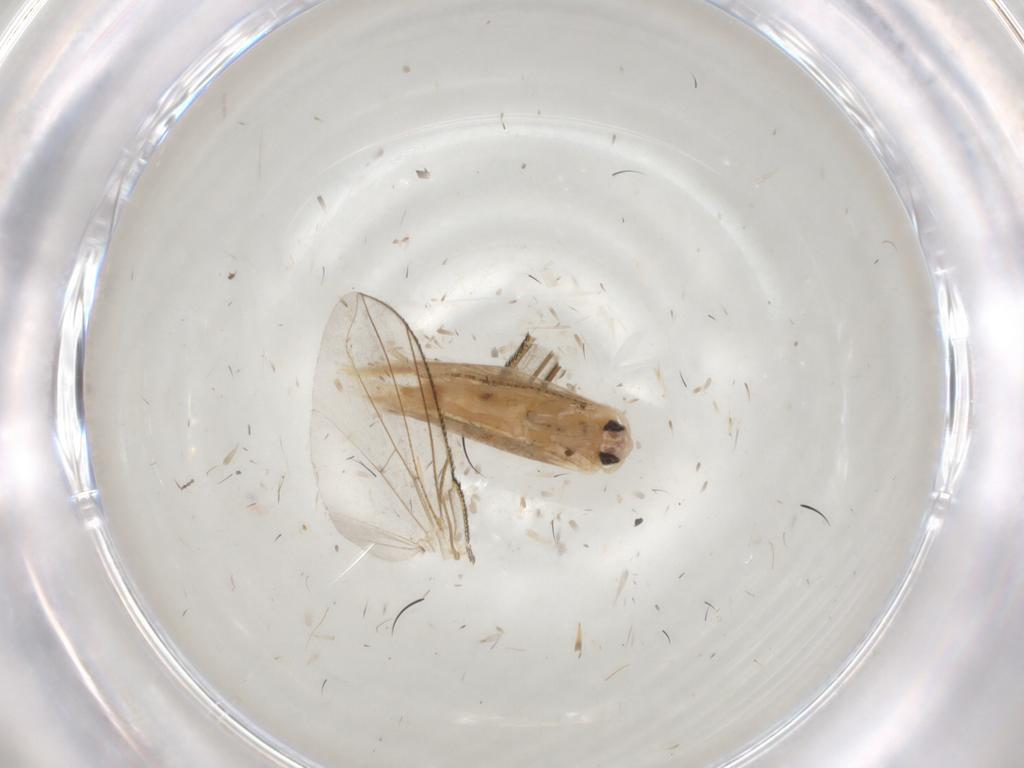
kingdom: Animalia
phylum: Arthropoda
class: Insecta
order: Lepidoptera
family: Bucculatricidae
